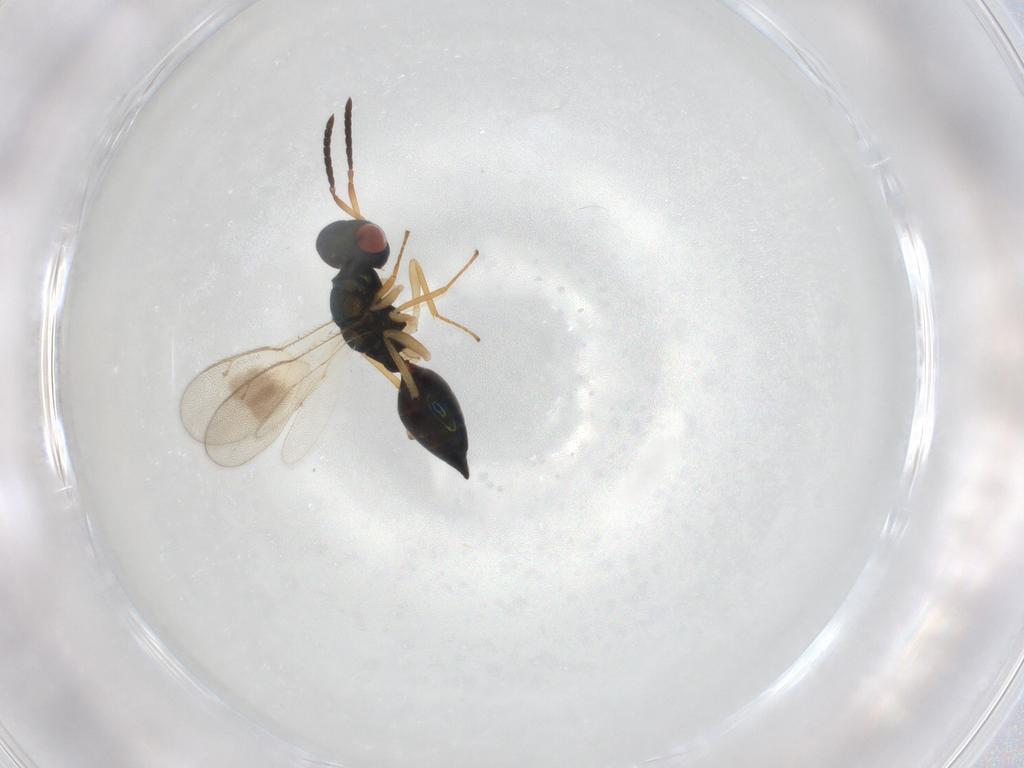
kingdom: Animalia
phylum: Arthropoda
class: Insecta
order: Hymenoptera
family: Pteromalidae
